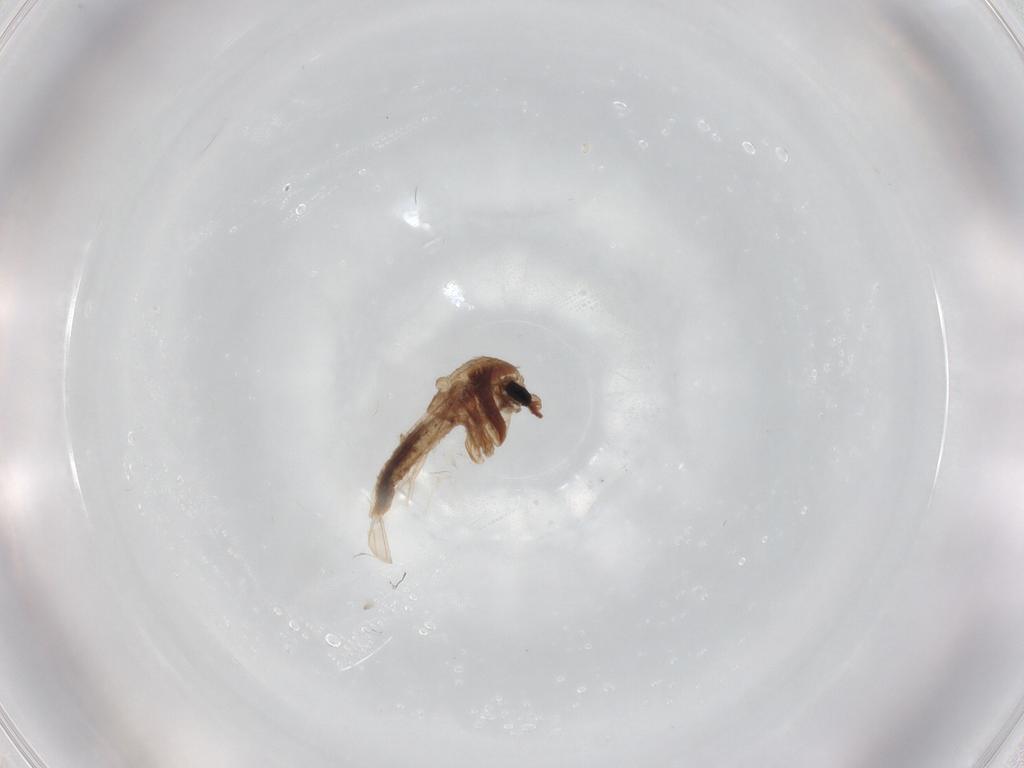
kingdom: Animalia
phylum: Arthropoda
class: Insecta
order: Diptera
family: Chironomidae
